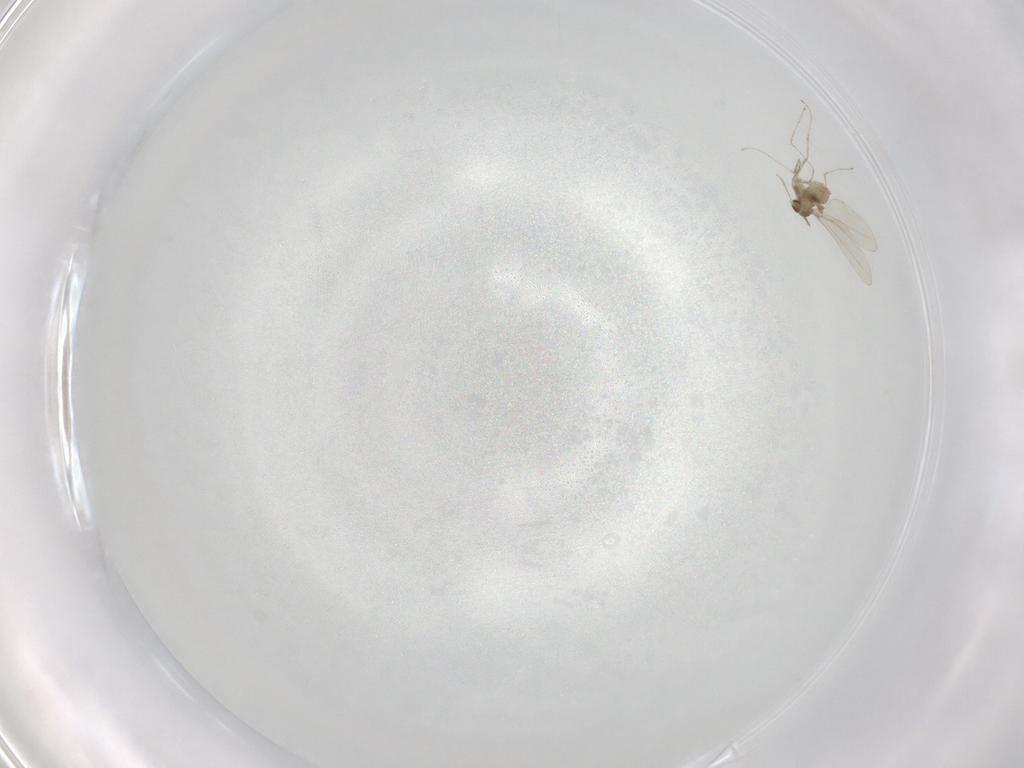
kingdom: Animalia
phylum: Arthropoda
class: Insecta
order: Diptera
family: Cecidomyiidae
